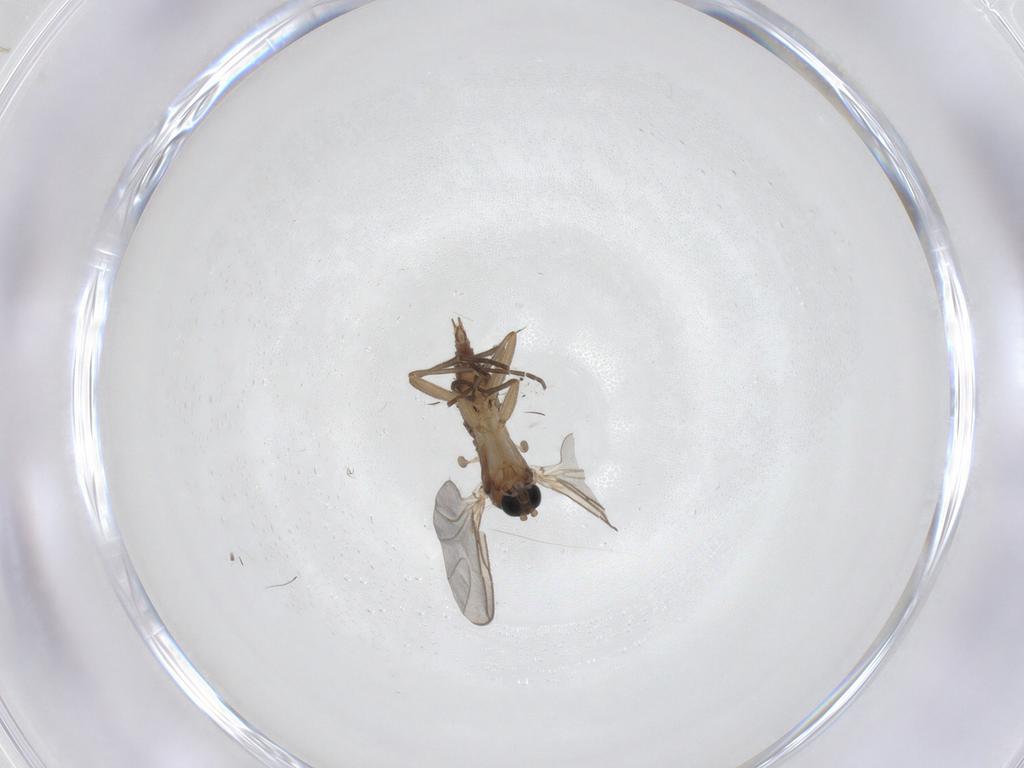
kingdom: Animalia
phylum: Arthropoda
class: Insecta
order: Diptera
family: Sciaridae
